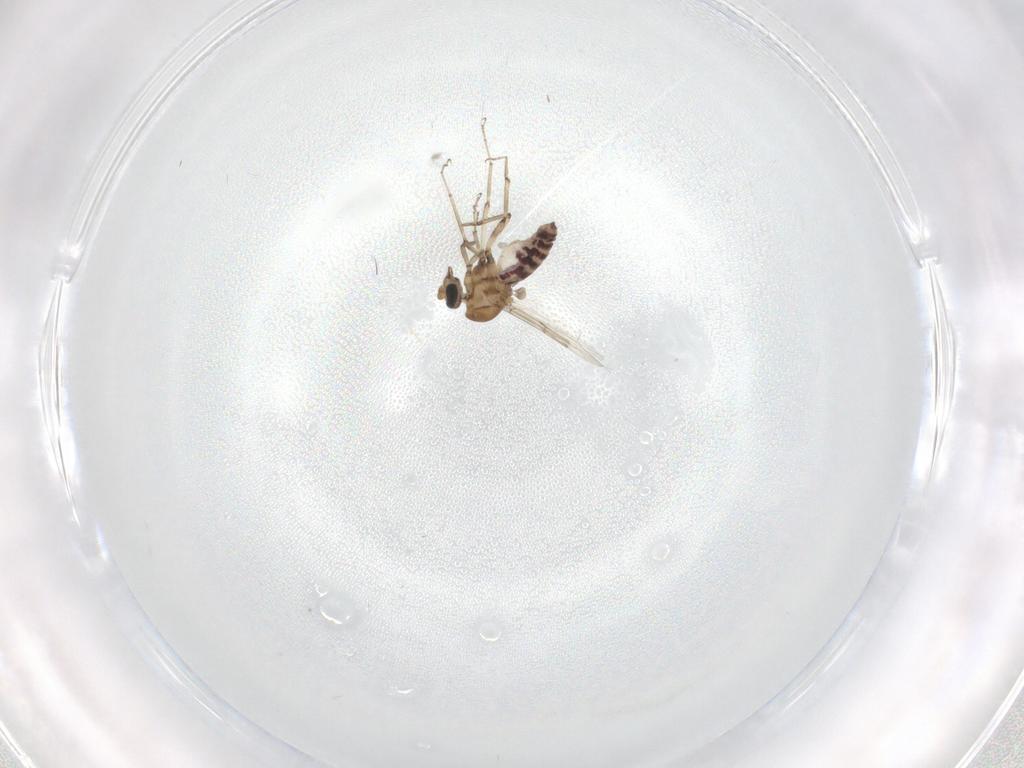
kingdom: Animalia
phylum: Arthropoda
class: Insecta
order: Diptera
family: Ceratopogonidae
